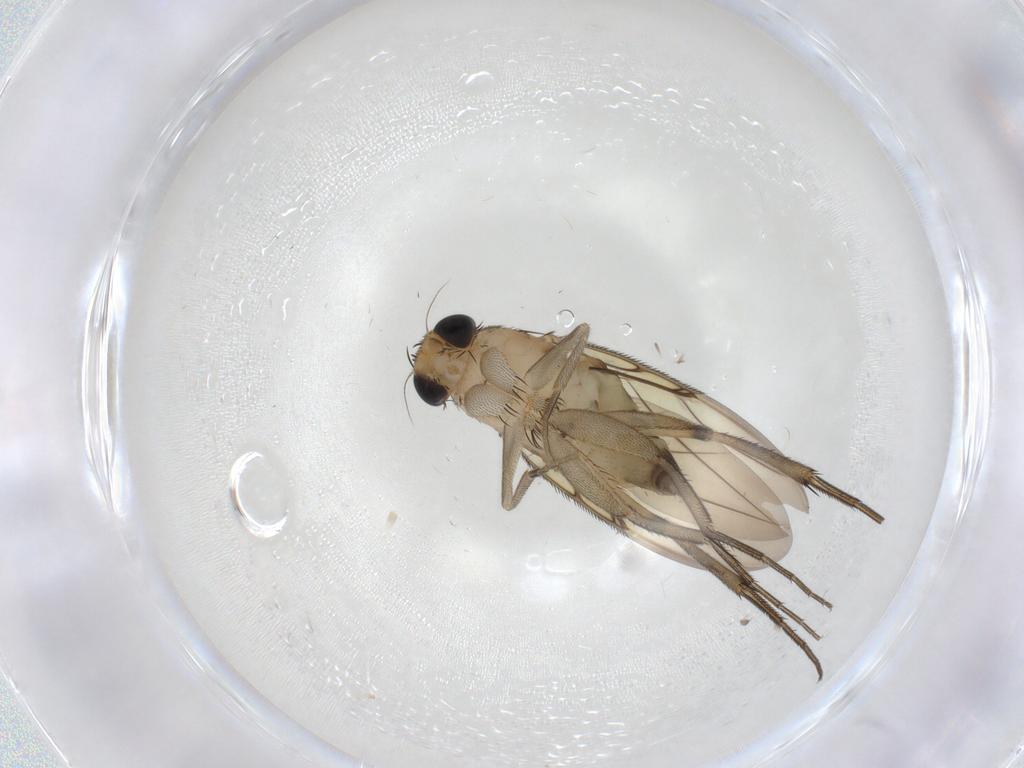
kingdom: Animalia
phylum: Arthropoda
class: Insecta
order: Diptera
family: Phoridae
